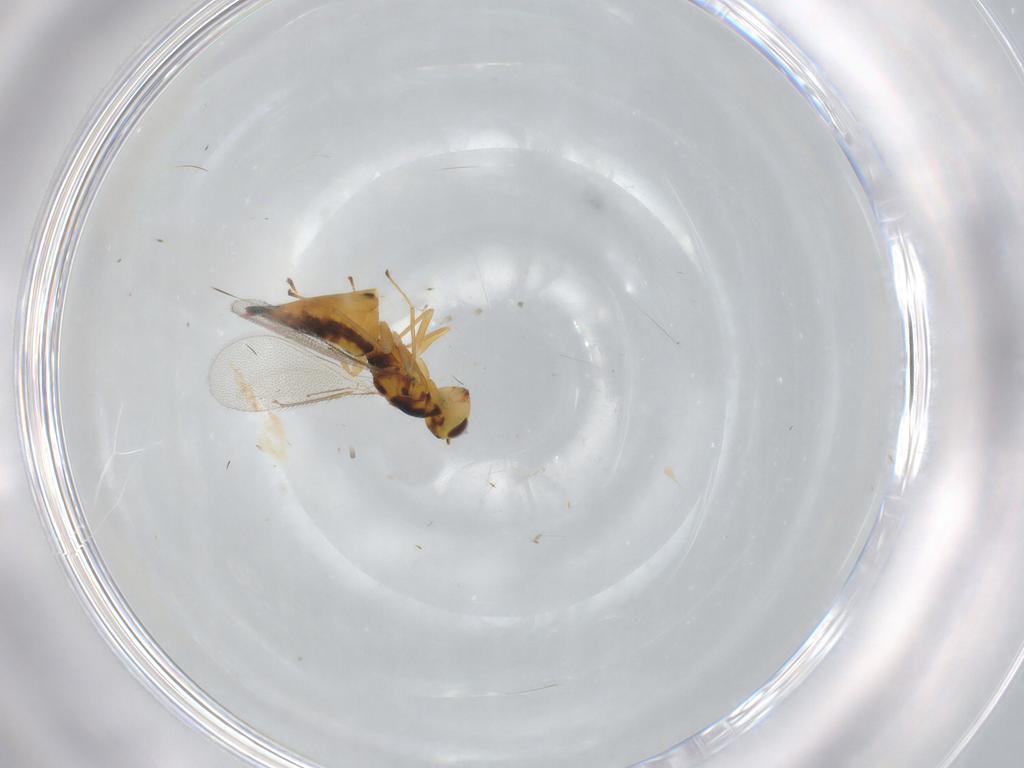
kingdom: Animalia
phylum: Arthropoda
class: Insecta
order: Hymenoptera
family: Eulophidae
